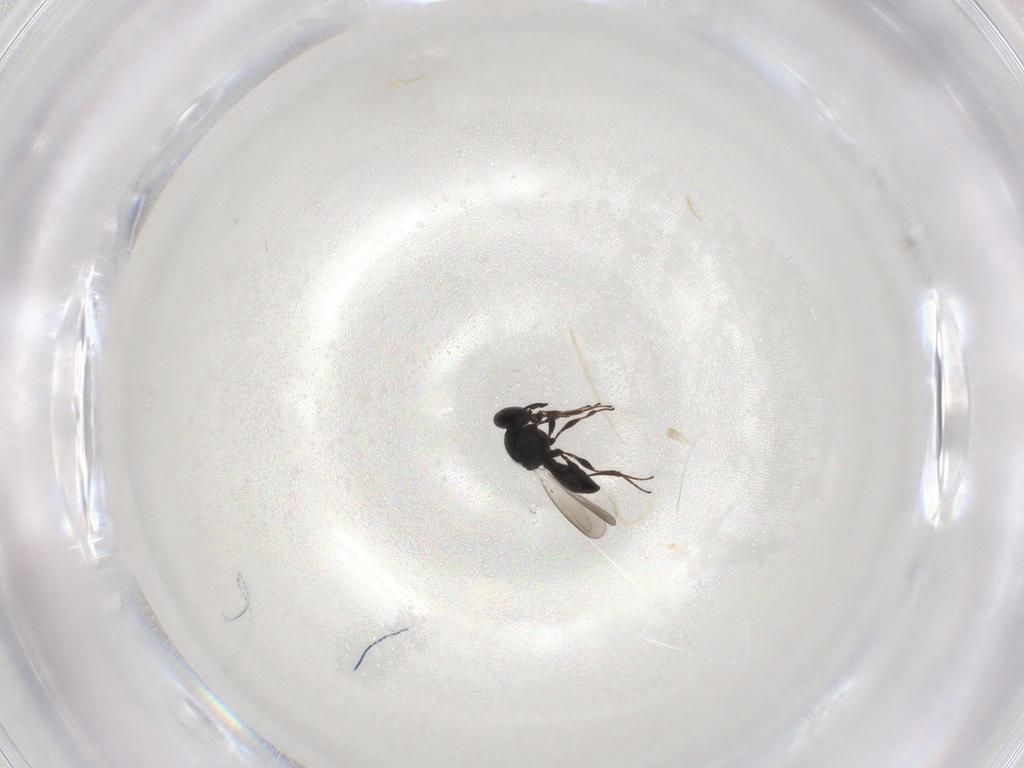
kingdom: Animalia
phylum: Arthropoda
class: Insecta
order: Hymenoptera
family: Platygastridae
